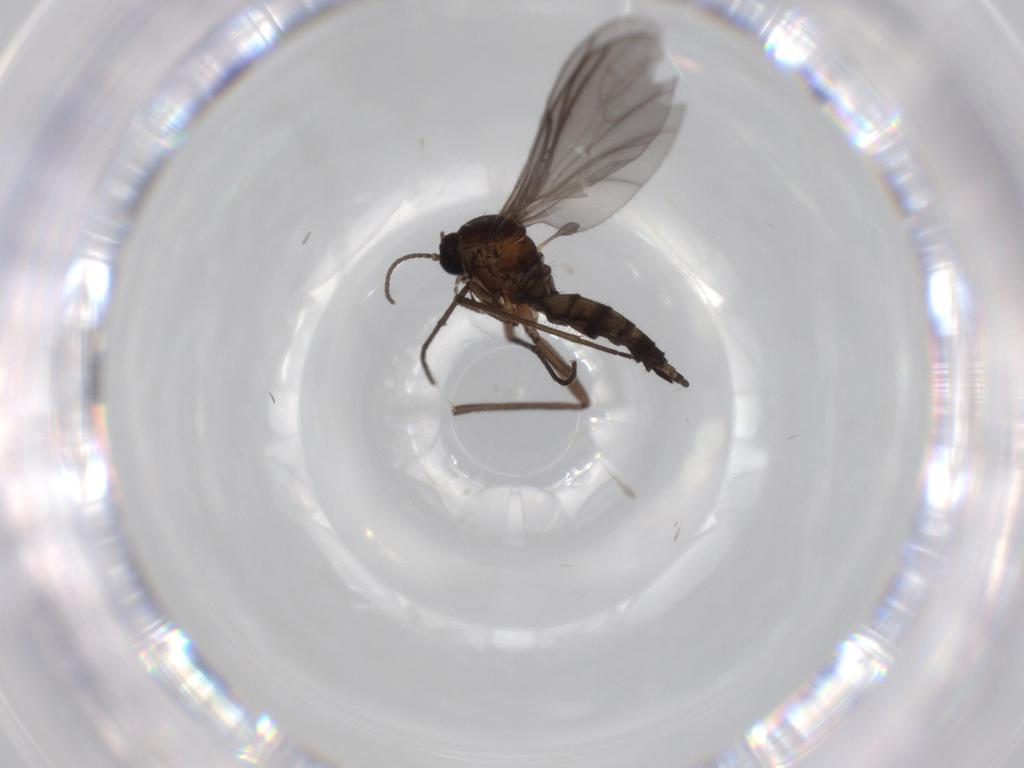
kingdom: Animalia
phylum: Arthropoda
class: Insecta
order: Diptera
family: Sciaridae
